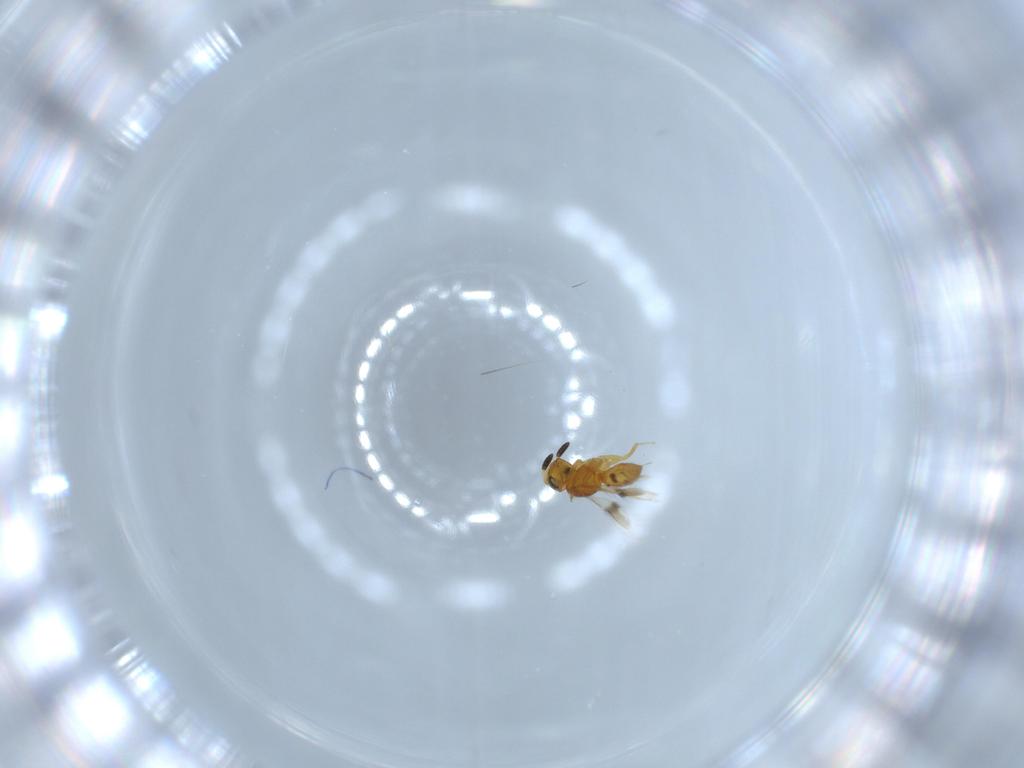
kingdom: Animalia
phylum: Arthropoda
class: Insecta
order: Hymenoptera
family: Scelionidae
